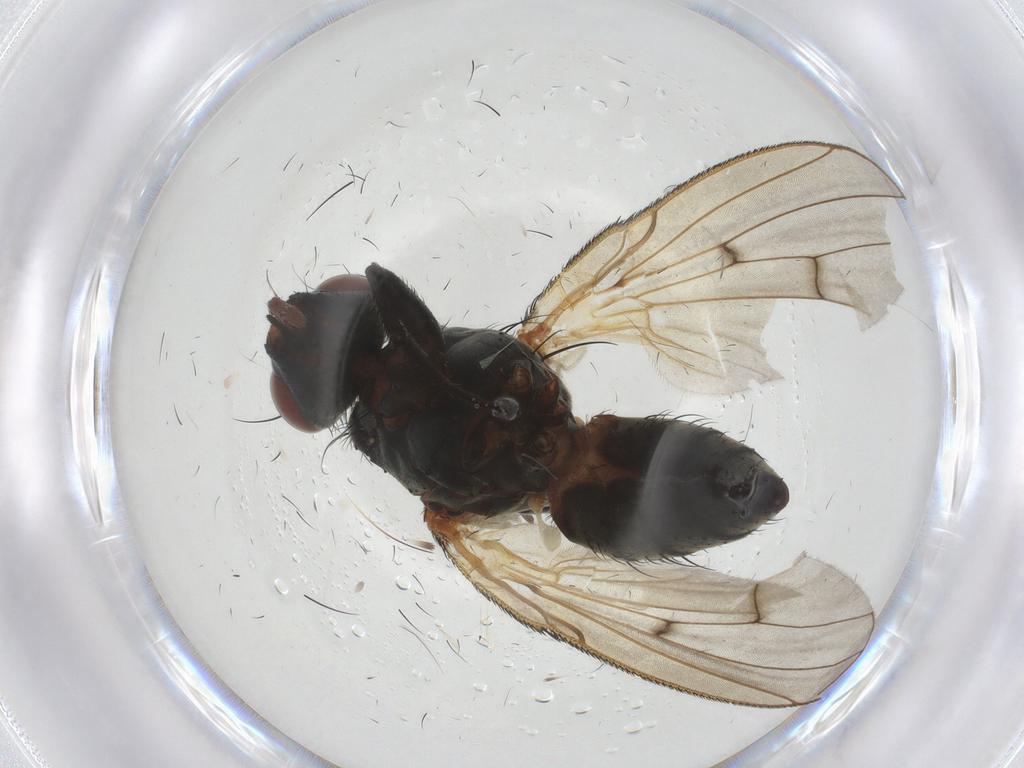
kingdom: Animalia
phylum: Arthropoda
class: Insecta
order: Diptera
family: Anthomyiidae
